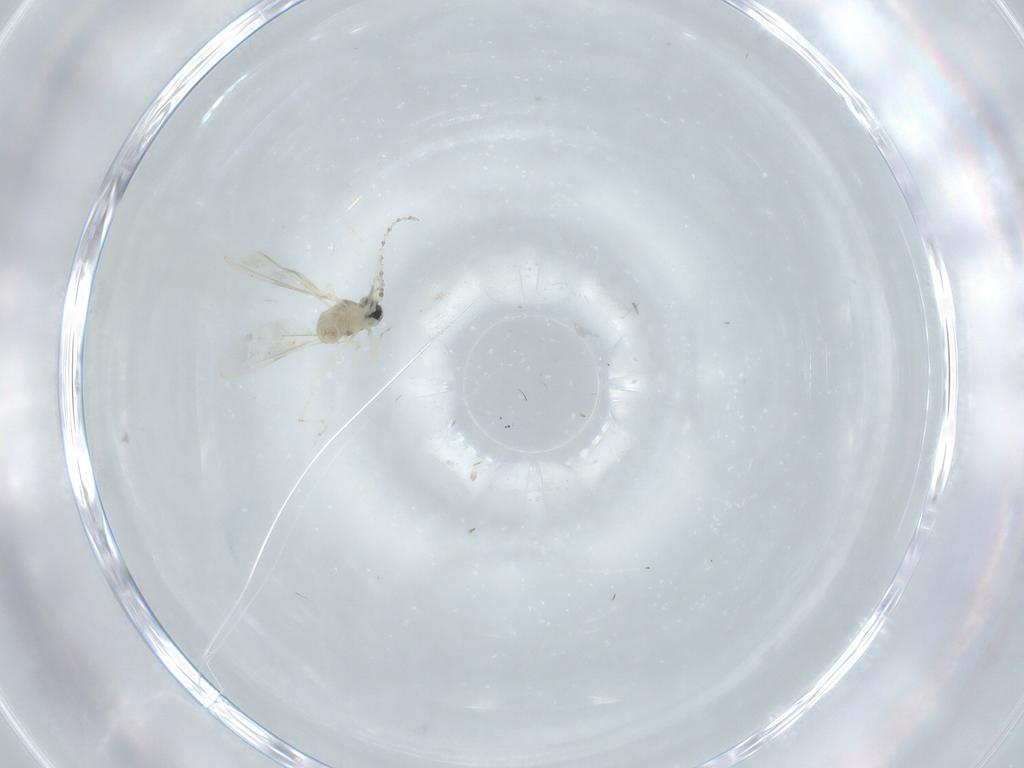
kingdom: Animalia
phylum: Arthropoda
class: Insecta
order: Diptera
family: Cecidomyiidae
